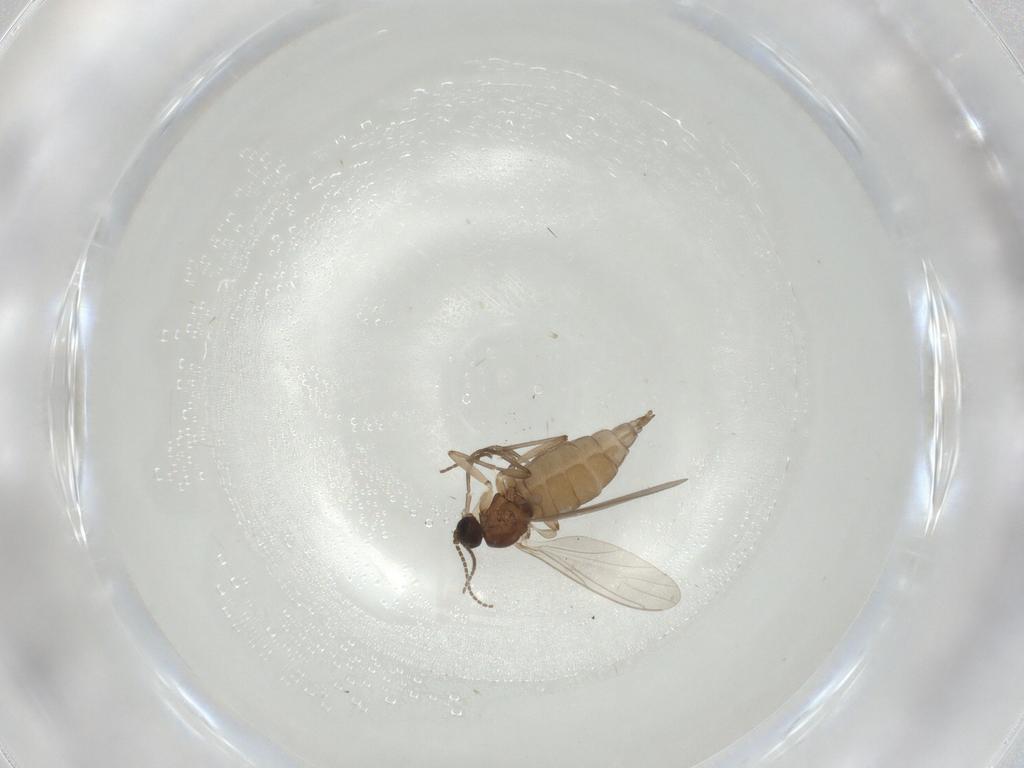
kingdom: Animalia
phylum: Arthropoda
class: Insecta
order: Diptera
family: Sciaridae
